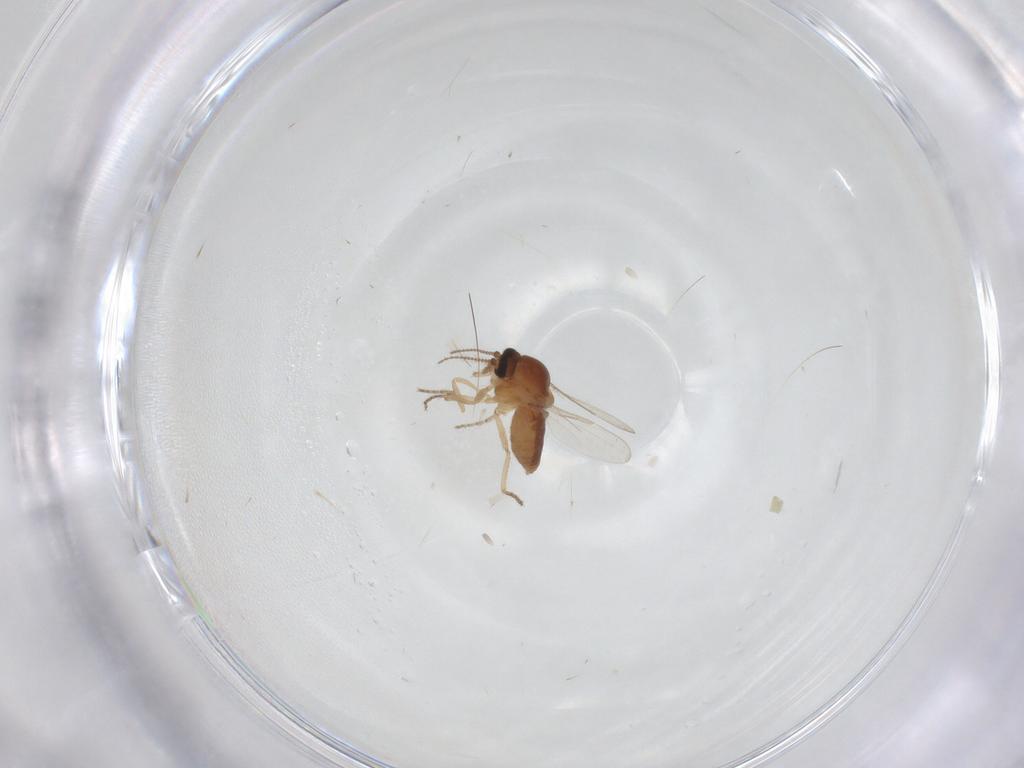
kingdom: Animalia
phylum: Arthropoda
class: Insecta
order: Diptera
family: Ceratopogonidae
